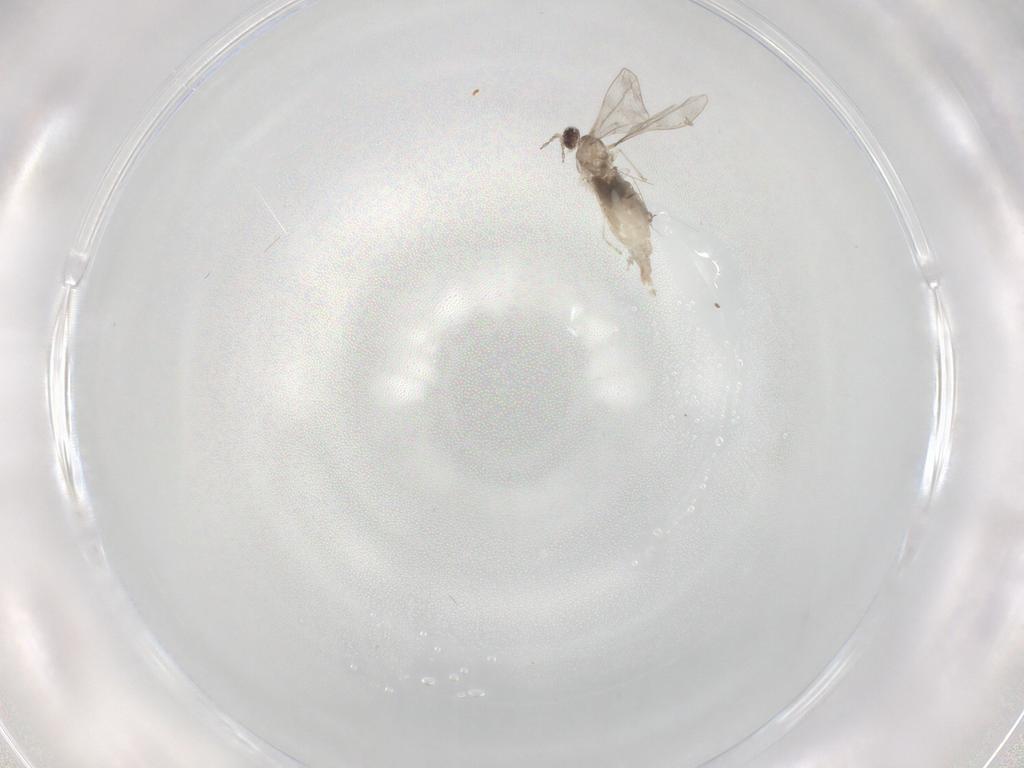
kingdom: Animalia
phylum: Arthropoda
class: Insecta
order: Diptera
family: Cecidomyiidae
